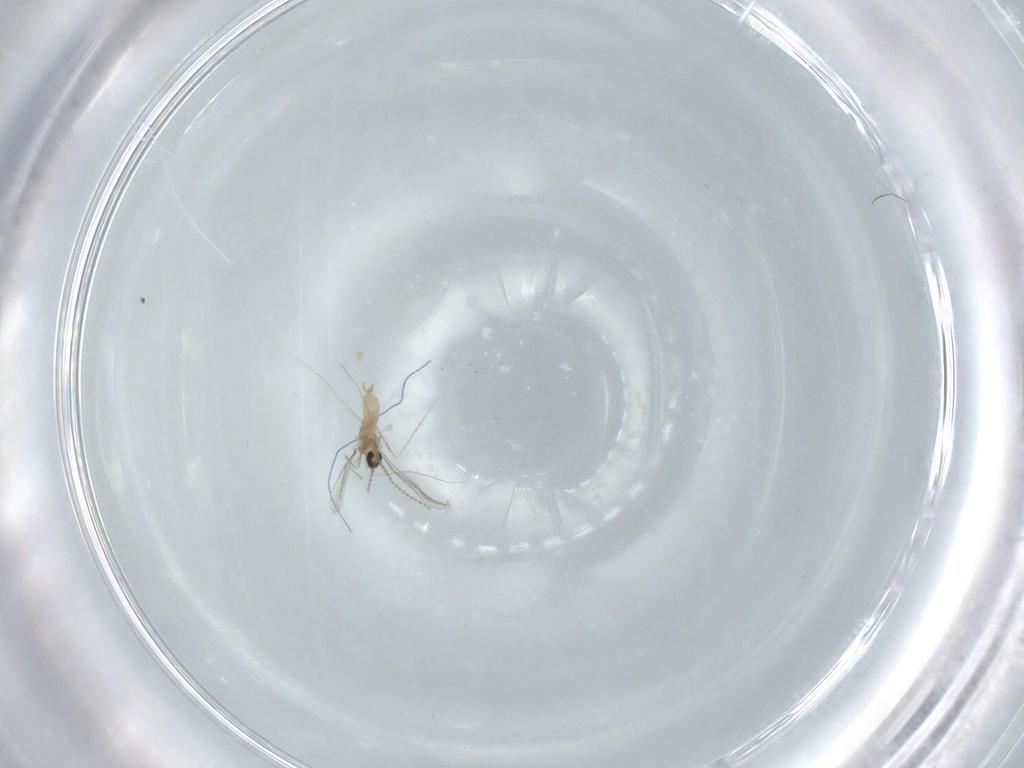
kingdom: Animalia
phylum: Arthropoda
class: Insecta
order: Diptera
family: Cecidomyiidae
